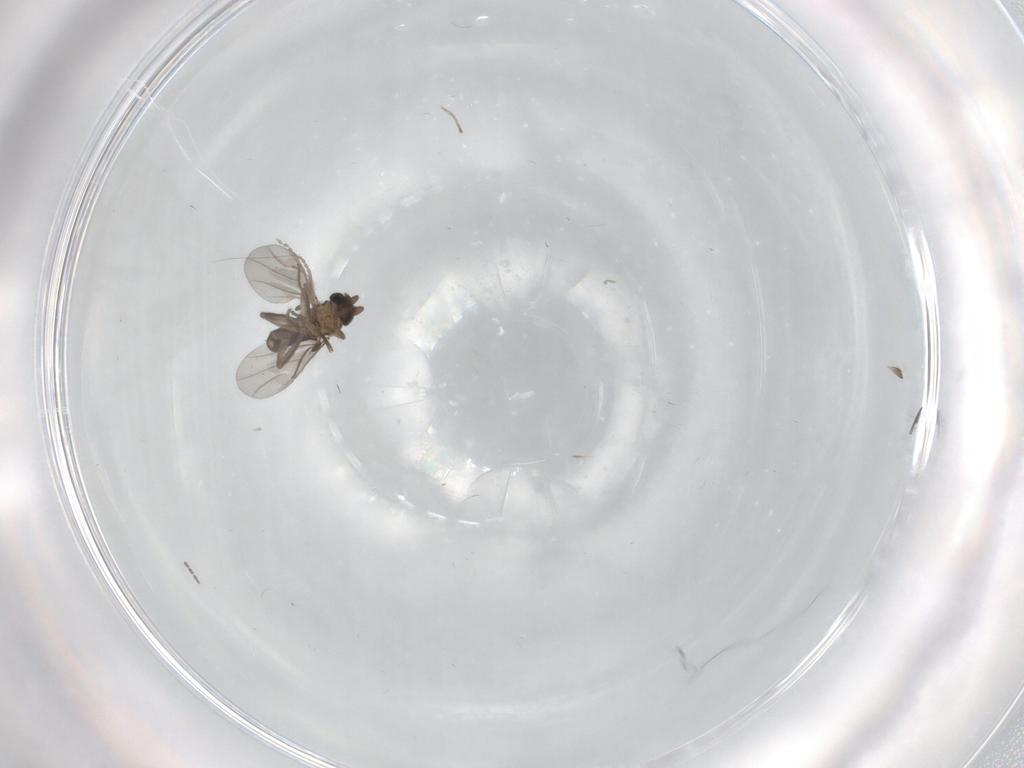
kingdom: Animalia
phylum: Arthropoda
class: Insecta
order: Diptera
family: Cecidomyiidae
